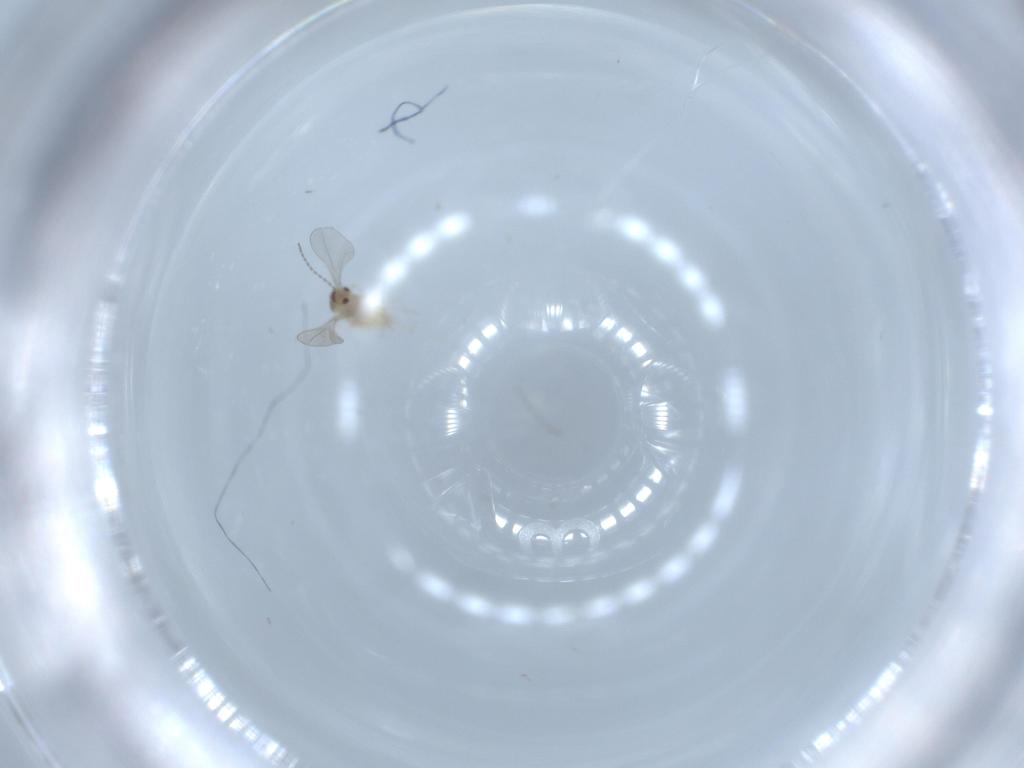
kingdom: Animalia
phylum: Arthropoda
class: Insecta
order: Diptera
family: Cecidomyiidae
